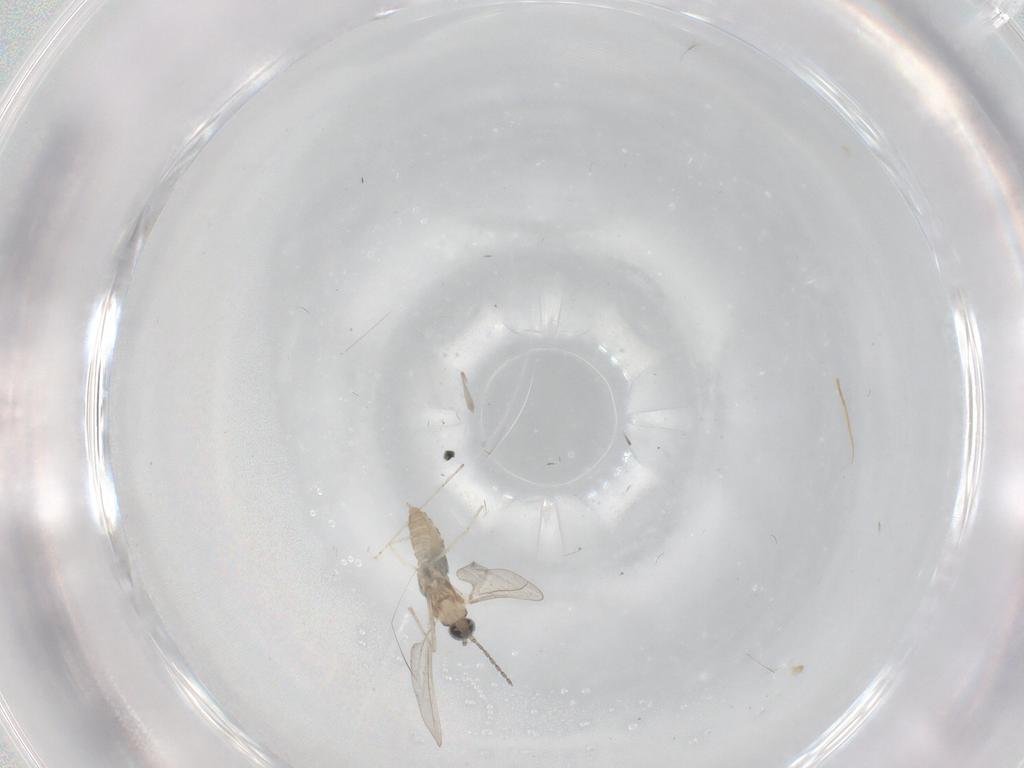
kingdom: Animalia
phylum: Arthropoda
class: Insecta
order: Diptera
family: Cecidomyiidae
